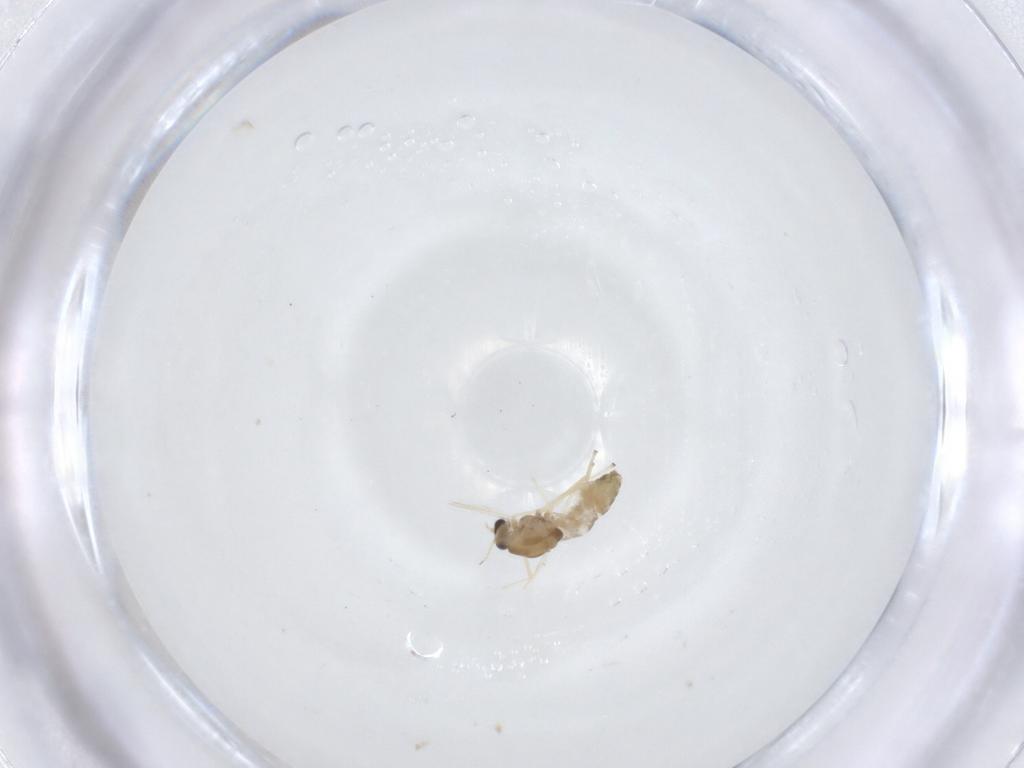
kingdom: Animalia
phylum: Arthropoda
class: Insecta
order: Diptera
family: Chironomidae
